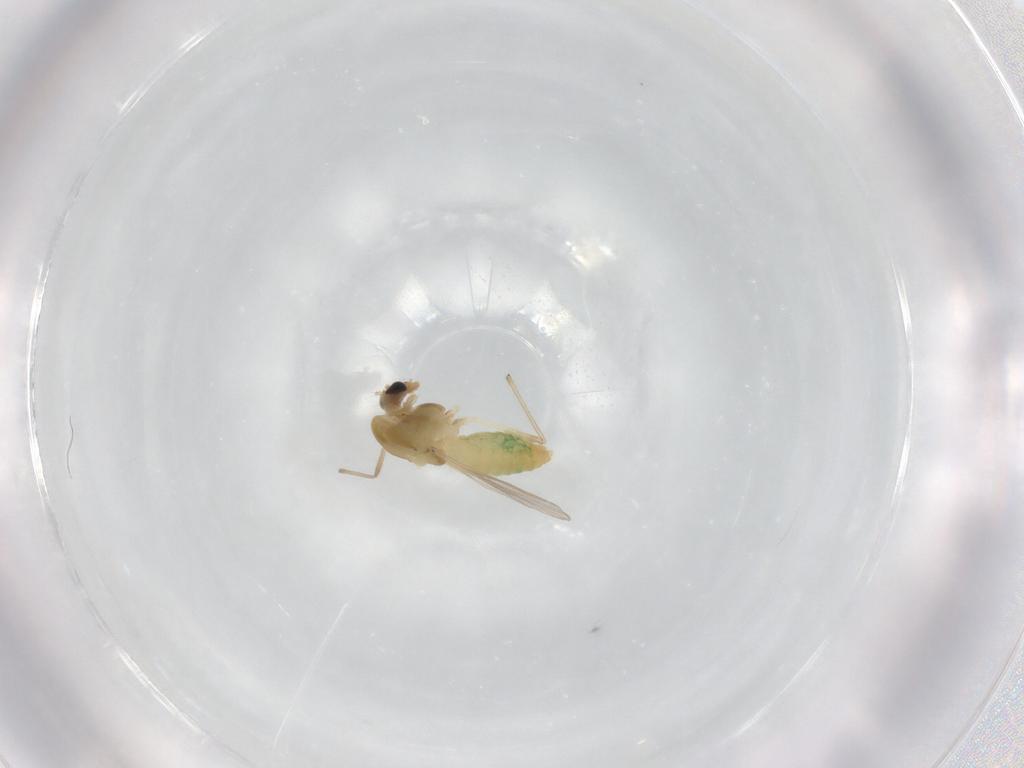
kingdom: Animalia
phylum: Arthropoda
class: Insecta
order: Diptera
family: Chironomidae
